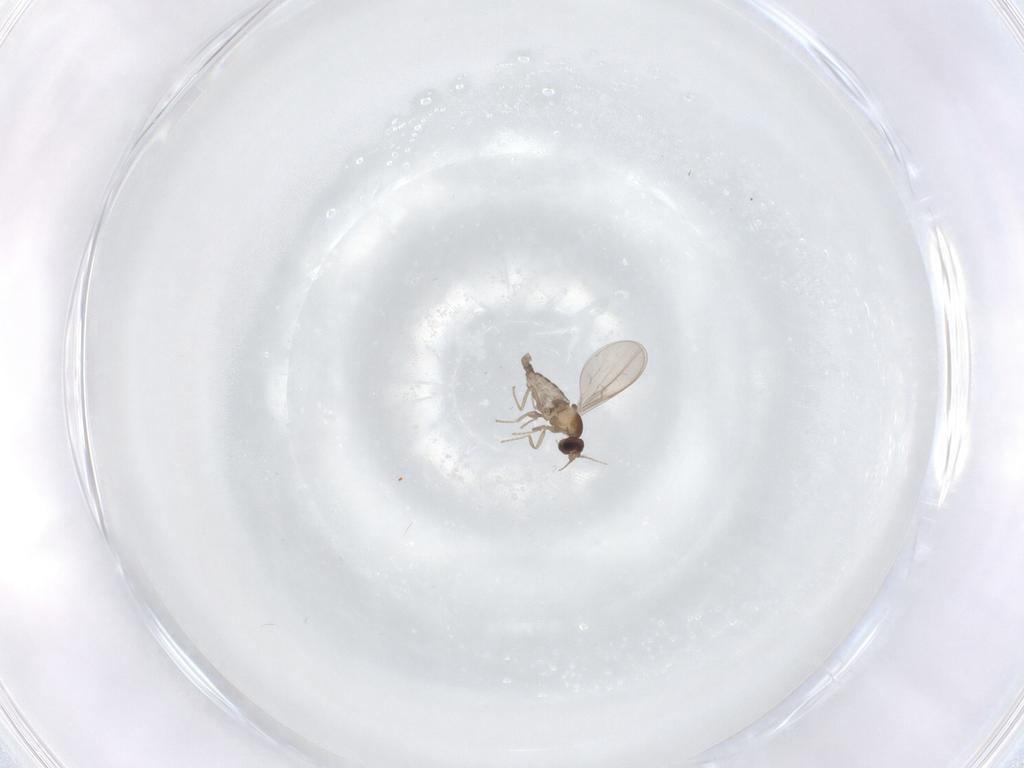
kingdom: Animalia
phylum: Arthropoda
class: Insecta
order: Diptera
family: Cecidomyiidae
